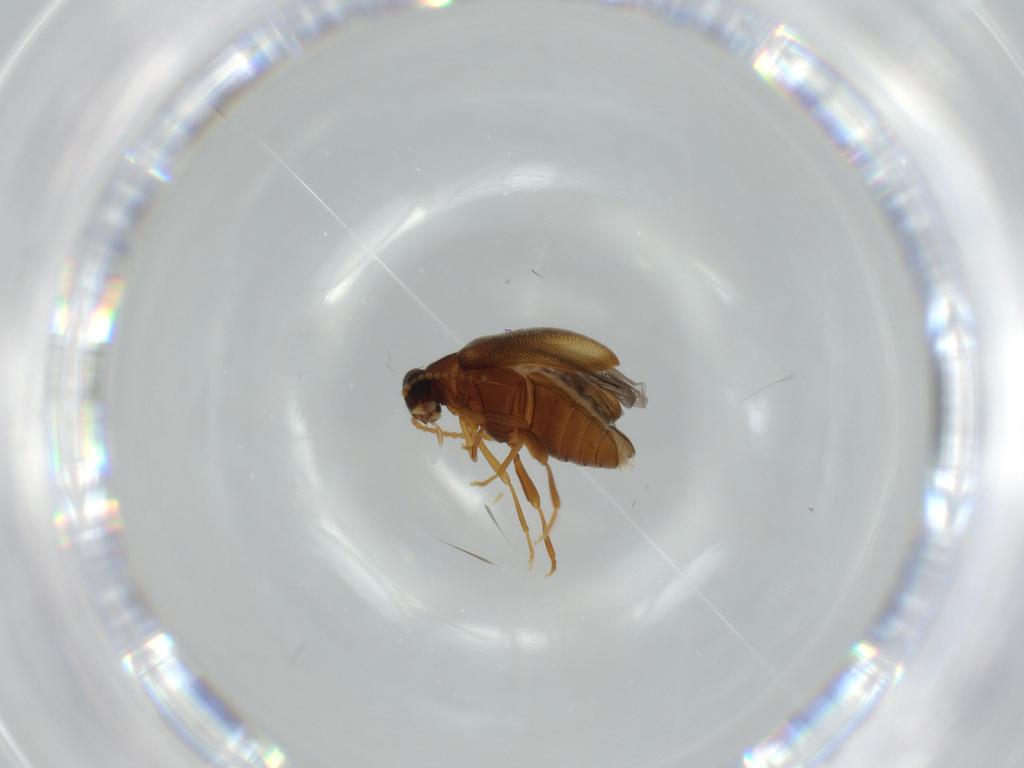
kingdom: Animalia
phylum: Arthropoda
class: Insecta
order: Coleoptera
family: Aderidae
